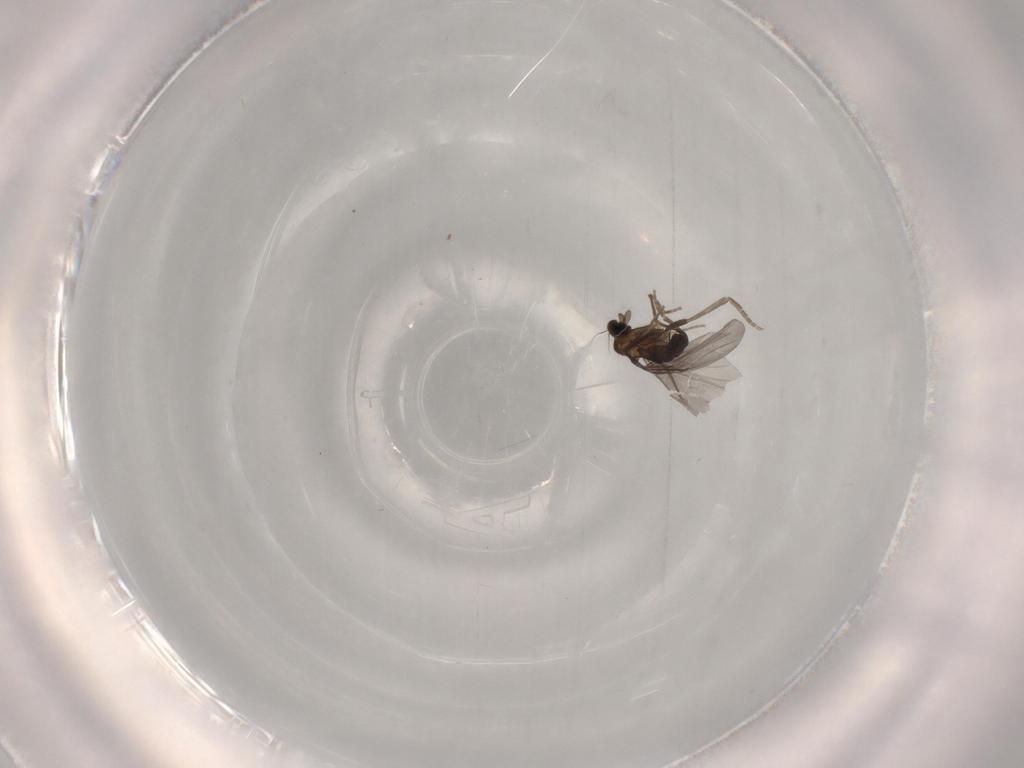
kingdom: Animalia
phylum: Arthropoda
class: Insecta
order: Diptera
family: Phoridae
